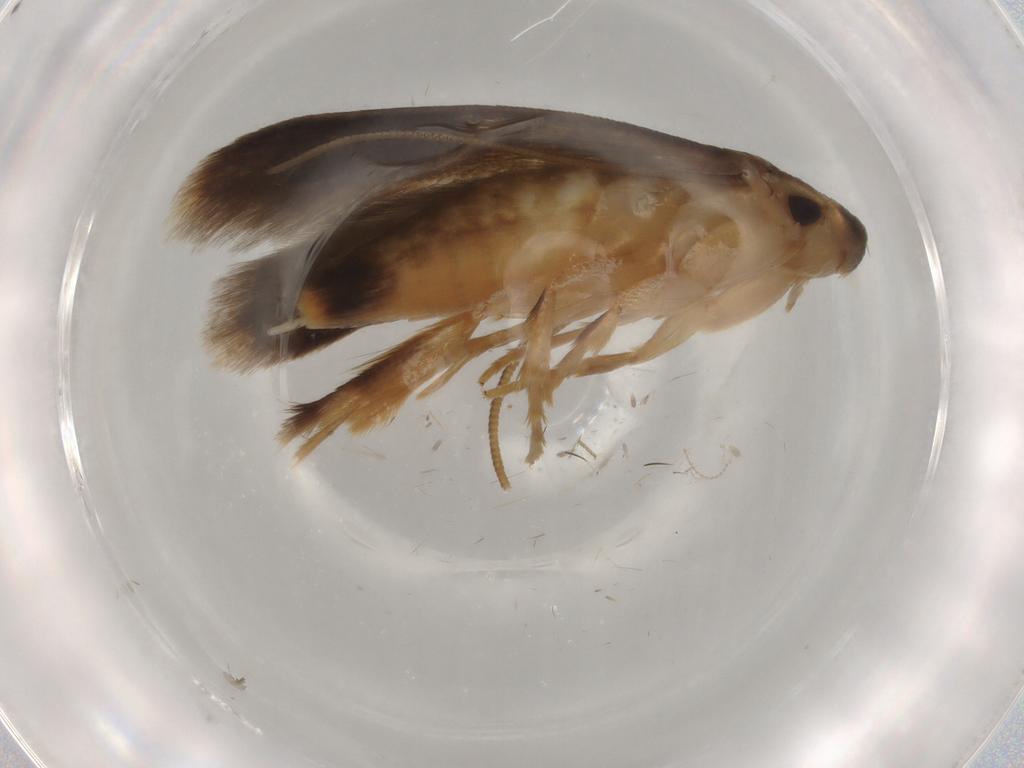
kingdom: Animalia
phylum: Arthropoda
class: Insecta
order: Lepidoptera
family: Tineidae
